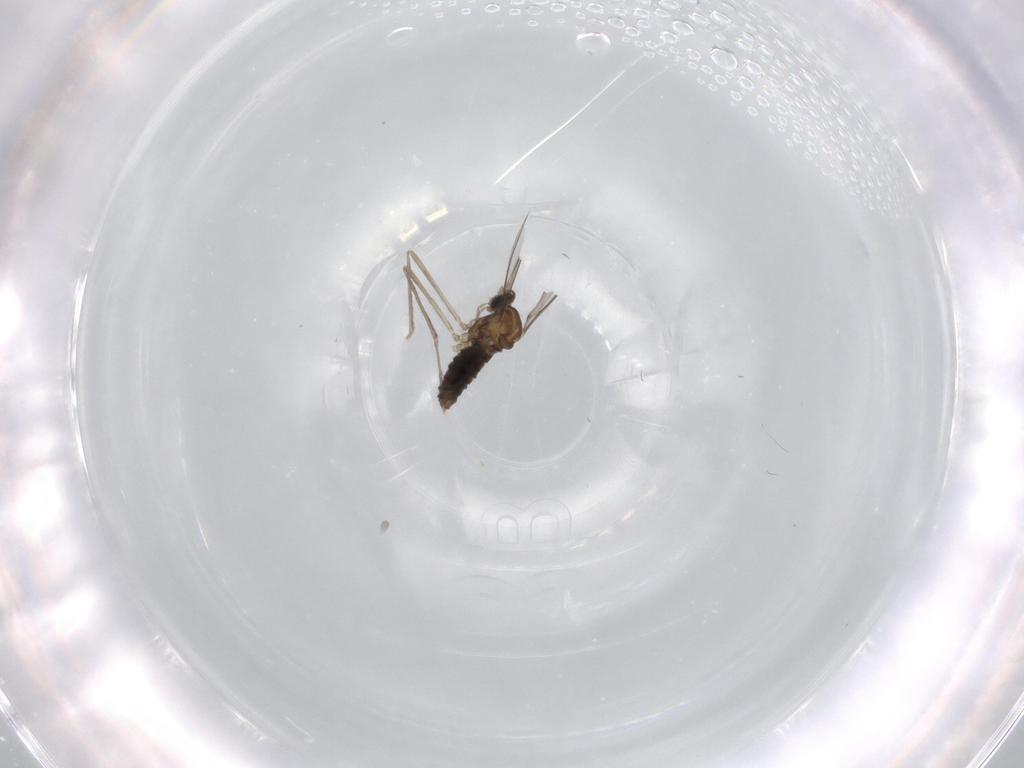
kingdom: Animalia
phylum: Arthropoda
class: Insecta
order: Diptera
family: Cecidomyiidae
